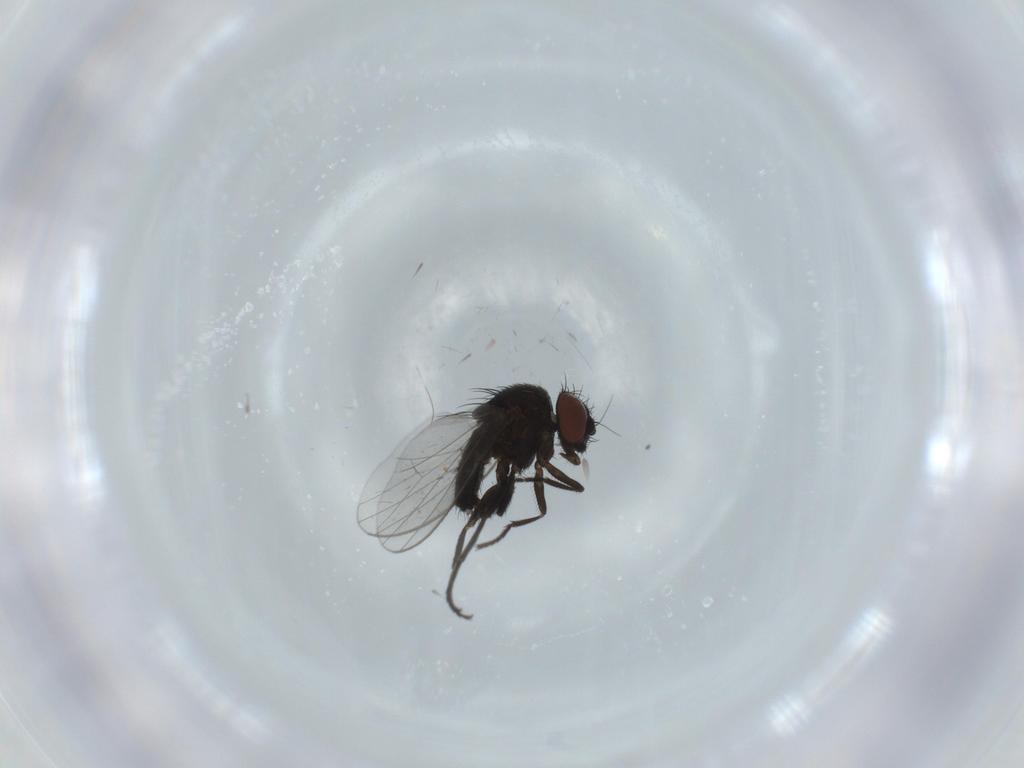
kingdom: Animalia
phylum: Arthropoda
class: Insecta
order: Diptera
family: Milichiidae
